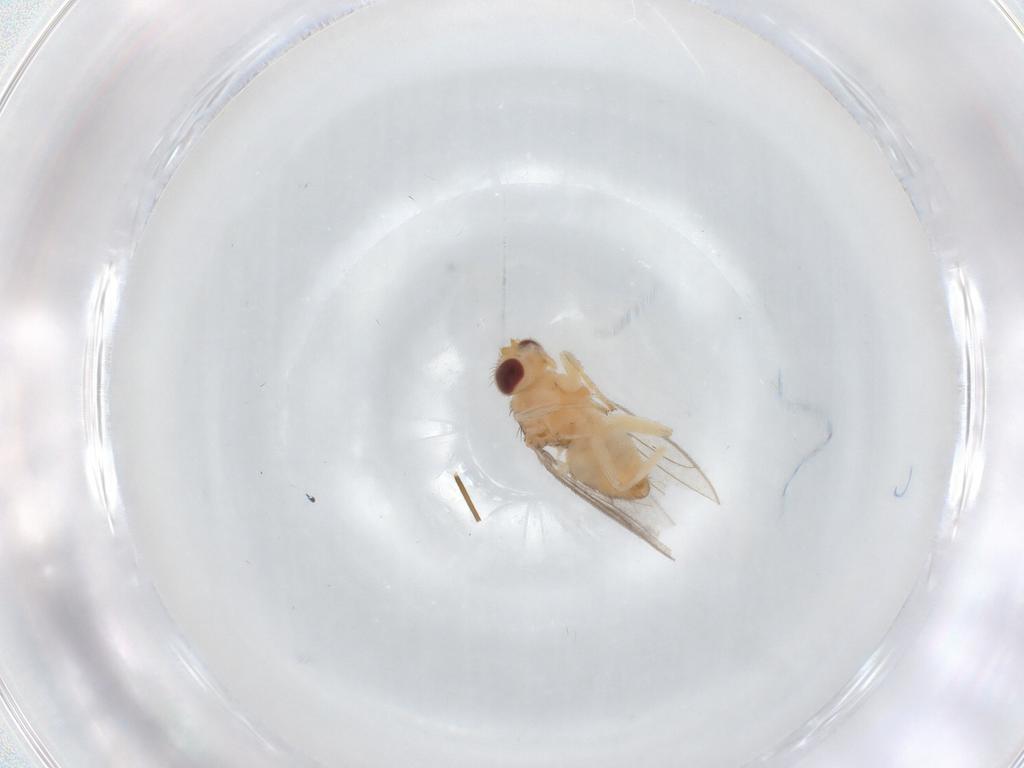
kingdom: Animalia
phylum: Arthropoda
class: Insecta
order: Diptera
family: Chloropidae
